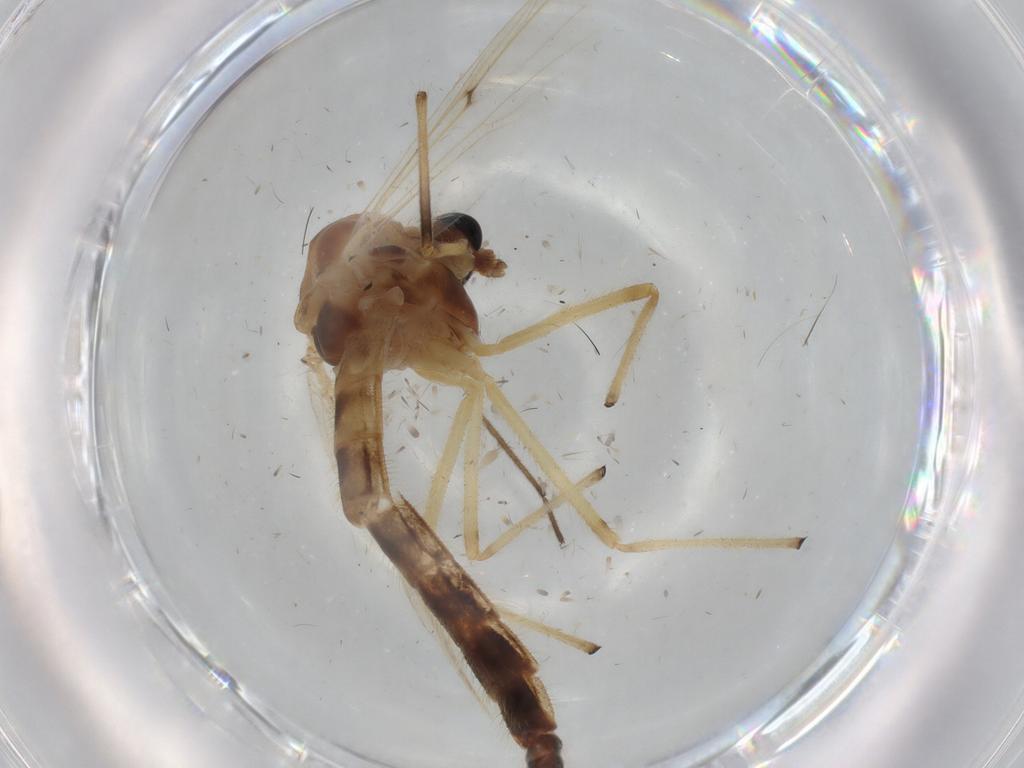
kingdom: Animalia
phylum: Arthropoda
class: Insecta
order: Diptera
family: Chironomidae
